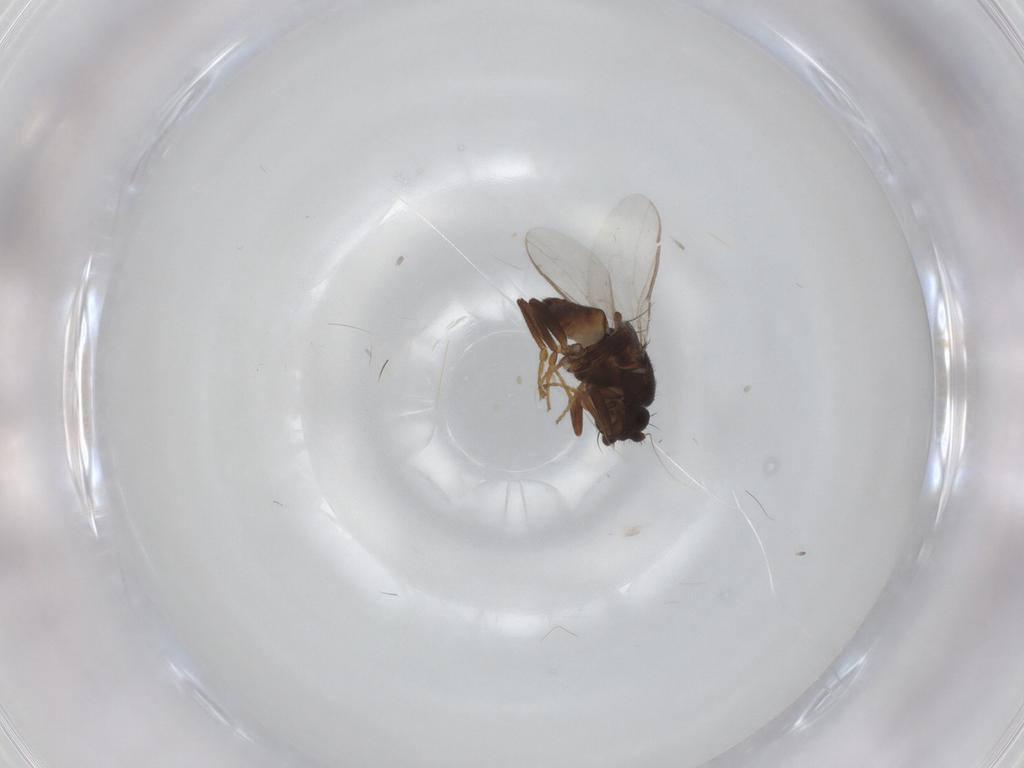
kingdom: Animalia
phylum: Arthropoda
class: Insecta
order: Diptera
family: Sphaeroceridae
